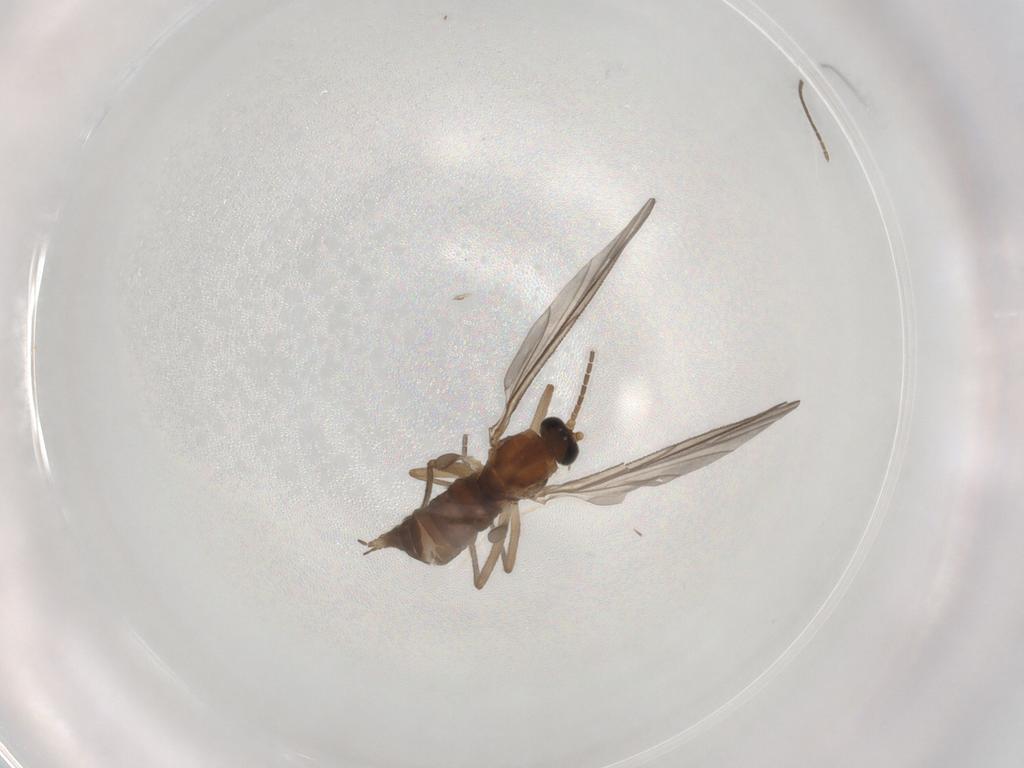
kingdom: Animalia
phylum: Arthropoda
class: Insecta
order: Diptera
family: Sciaridae
